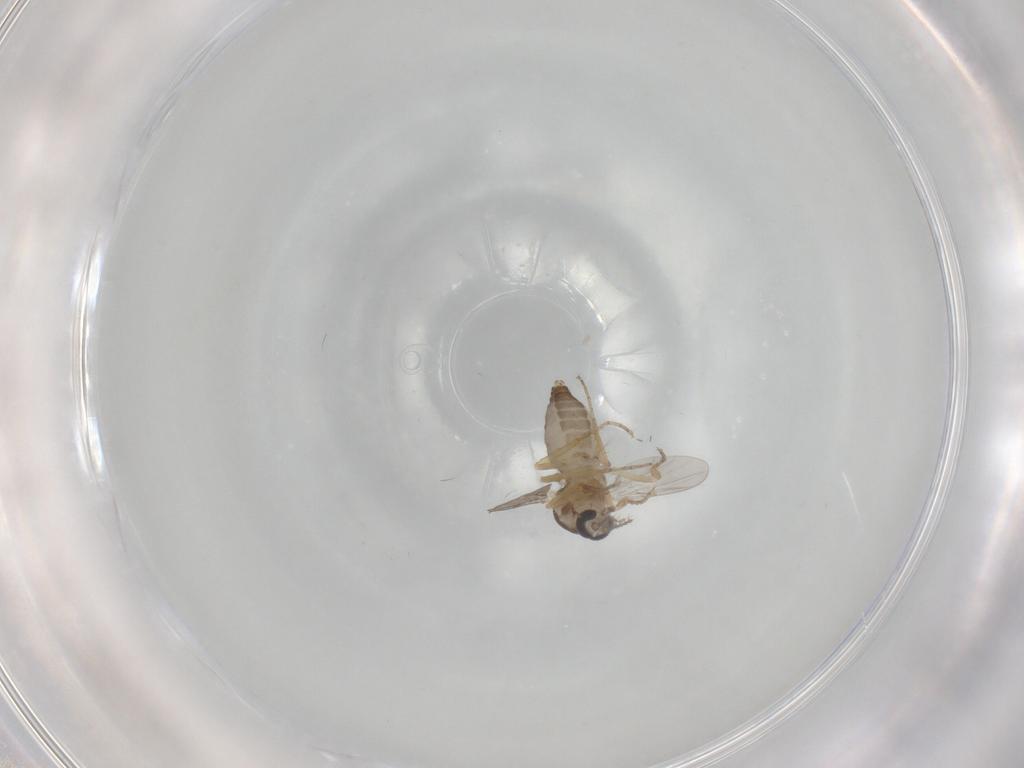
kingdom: Animalia
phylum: Arthropoda
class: Insecta
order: Diptera
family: Ceratopogonidae
